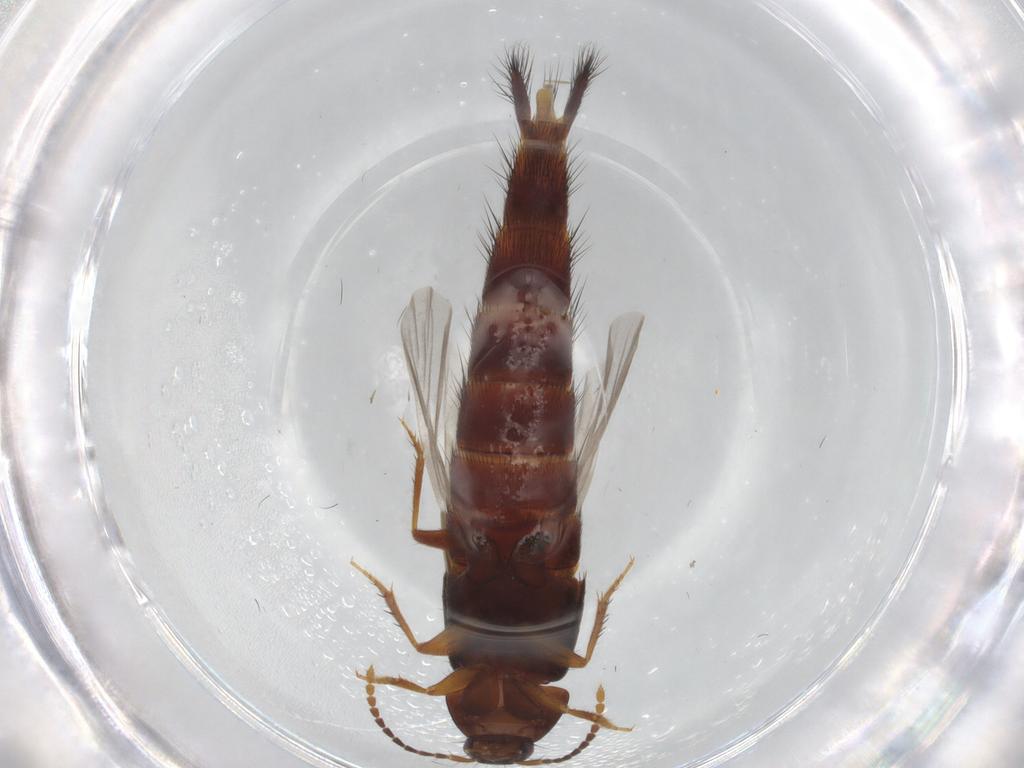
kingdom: Animalia
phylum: Arthropoda
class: Insecta
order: Coleoptera
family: Staphylinidae
